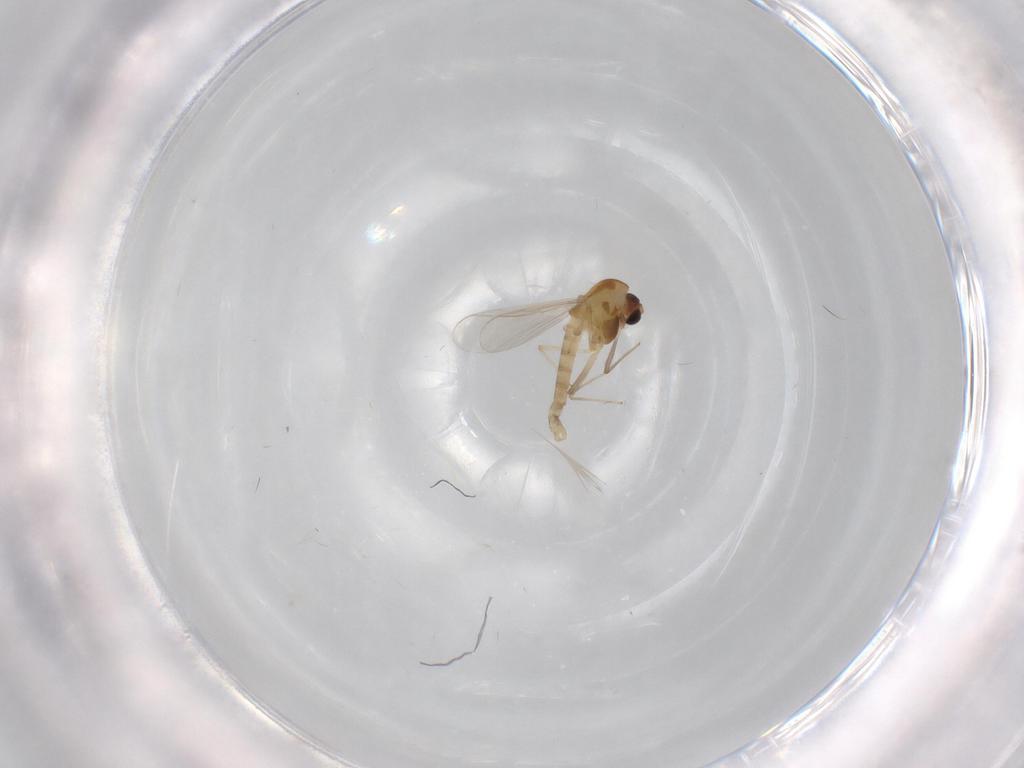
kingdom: Animalia
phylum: Arthropoda
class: Insecta
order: Diptera
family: Chironomidae
